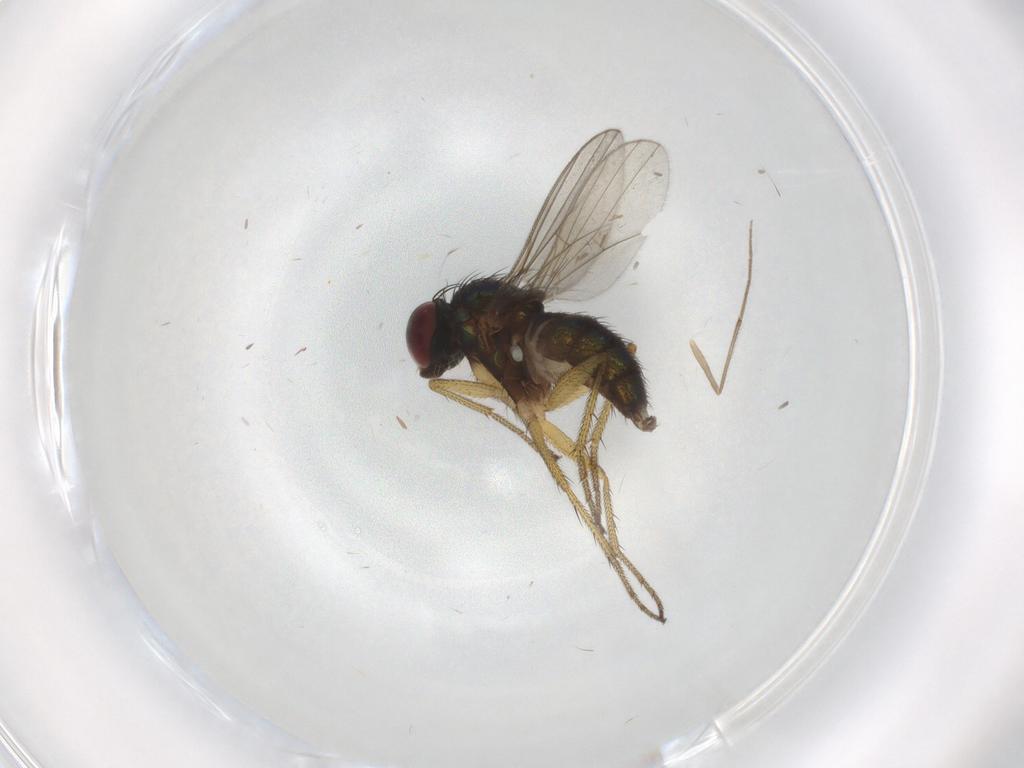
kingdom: Animalia
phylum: Arthropoda
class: Insecta
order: Diptera
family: Chironomidae
